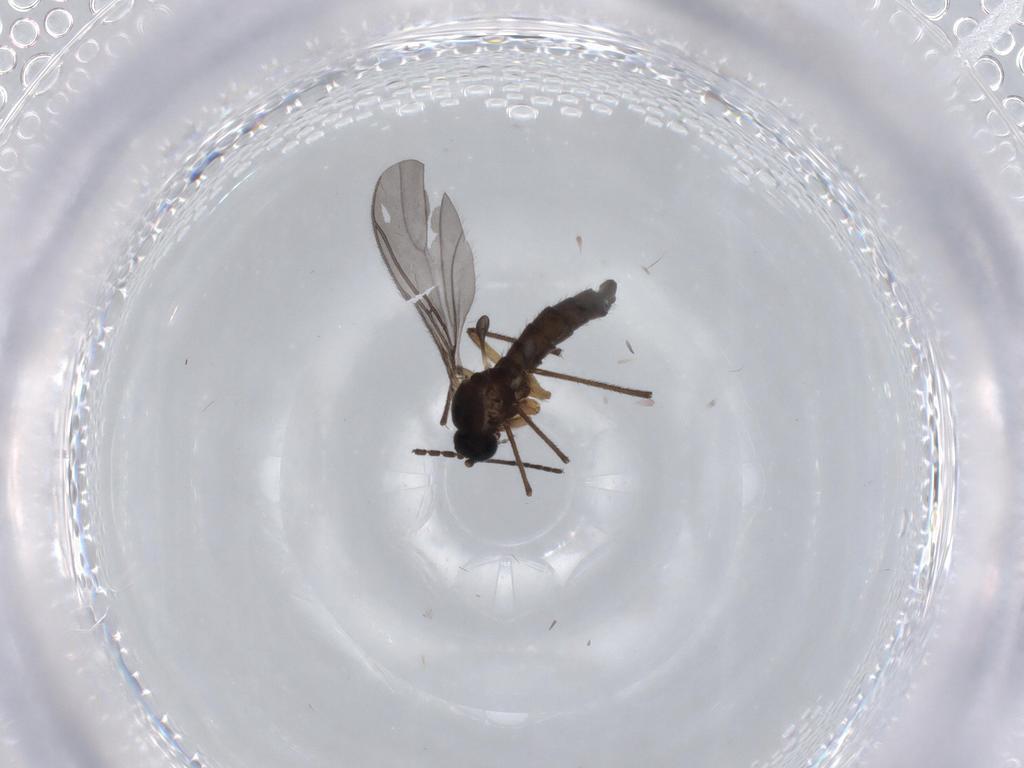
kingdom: Animalia
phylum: Arthropoda
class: Insecta
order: Diptera
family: Sciaridae
